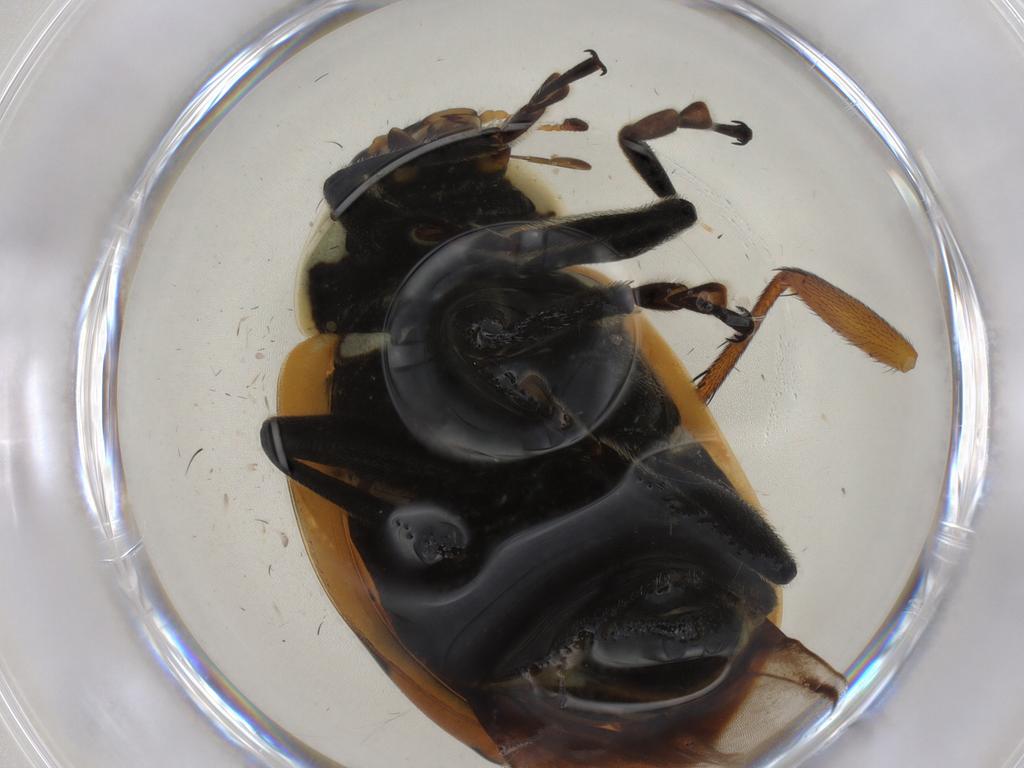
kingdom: Animalia
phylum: Arthropoda
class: Insecta
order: Coleoptera
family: Coccinellidae
